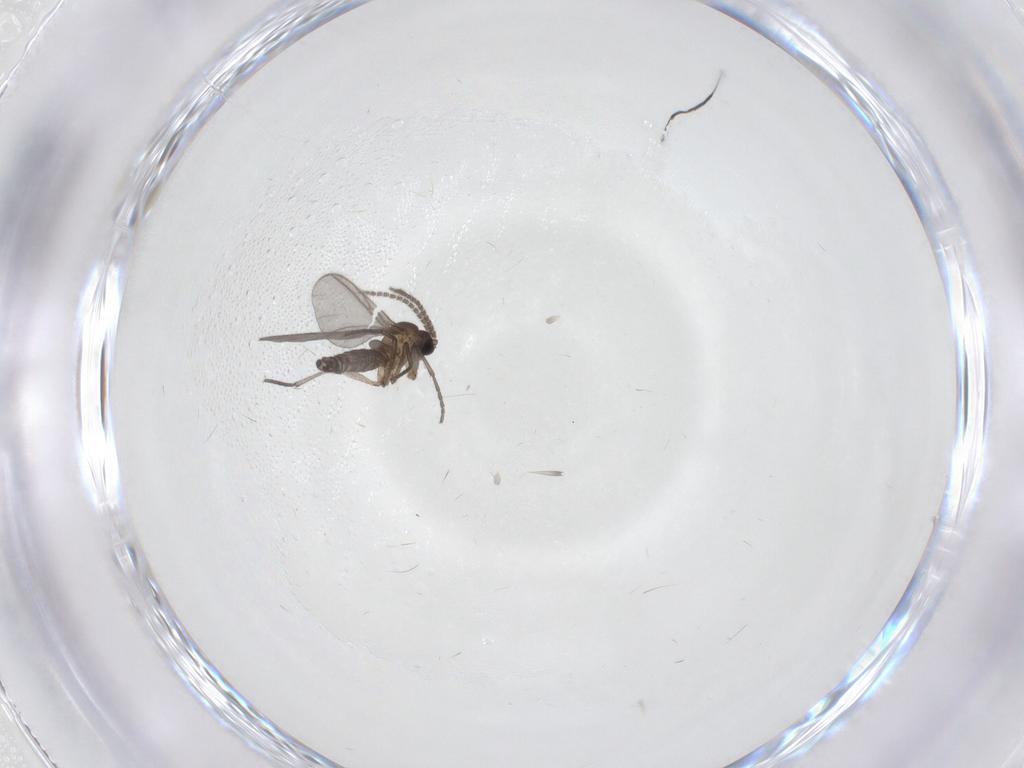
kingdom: Animalia
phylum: Arthropoda
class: Insecta
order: Diptera
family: Sciaridae
